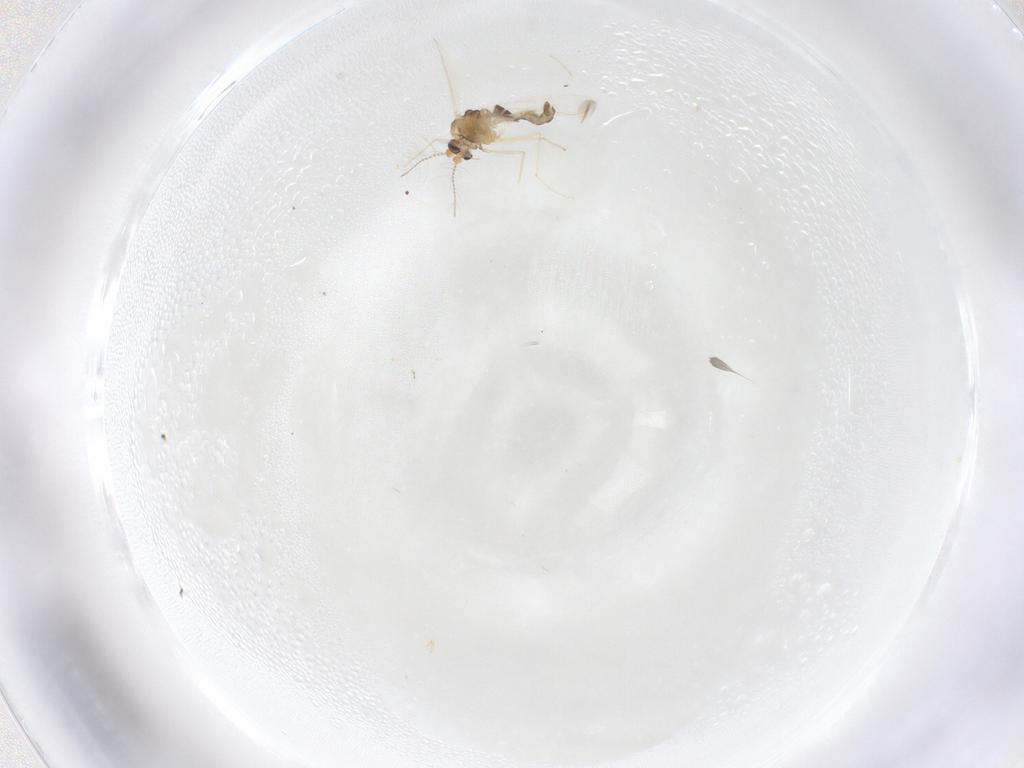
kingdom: Animalia
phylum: Arthropoda
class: Insecta
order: Diptera
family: Chironomidae
